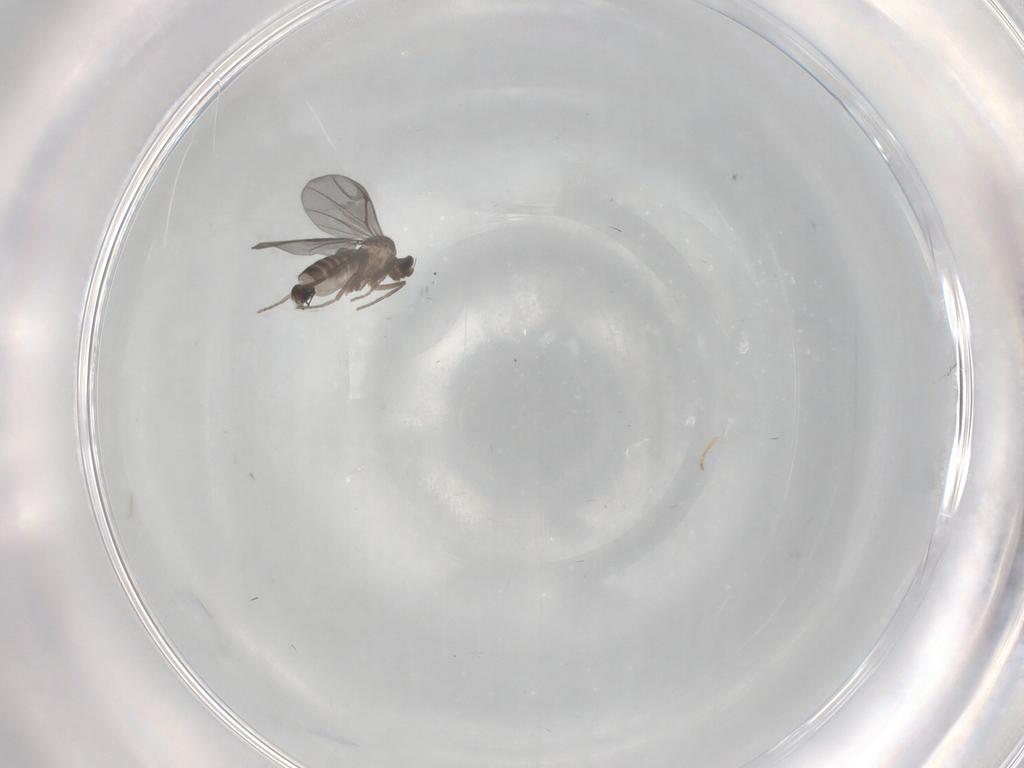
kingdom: Animalia
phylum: Arthropoda
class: Insecta
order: Diptera
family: Phoridae
